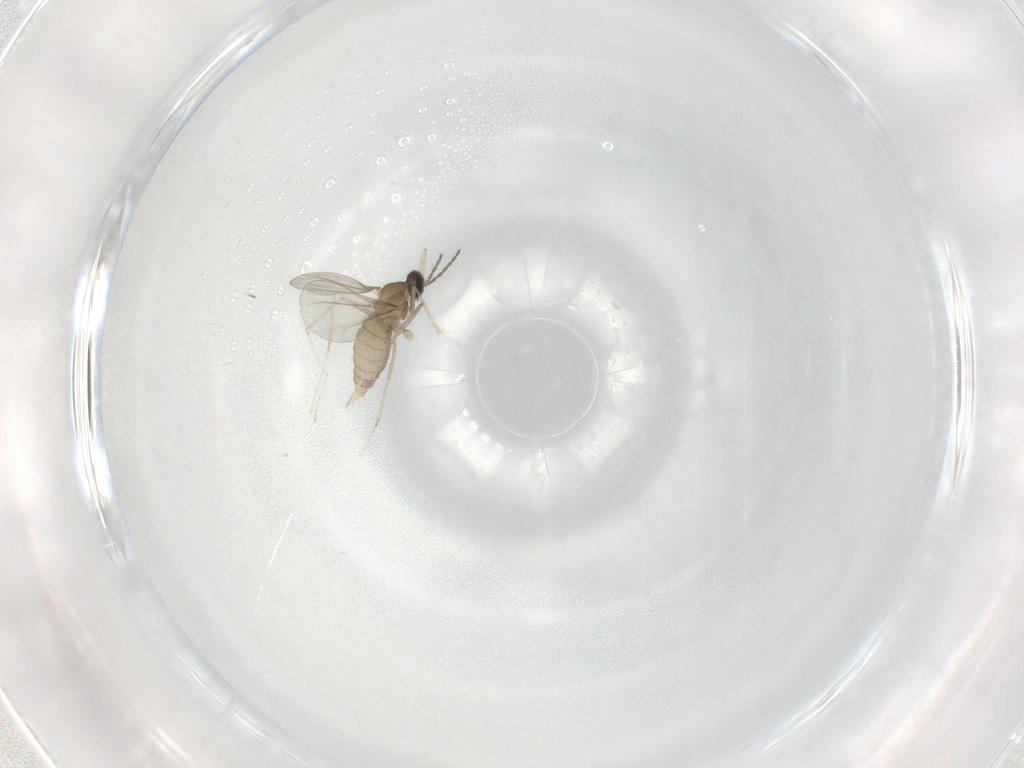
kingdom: Animalia
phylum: Arthropoda
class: Insecta
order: Diptera
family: Cecidomyiidae
